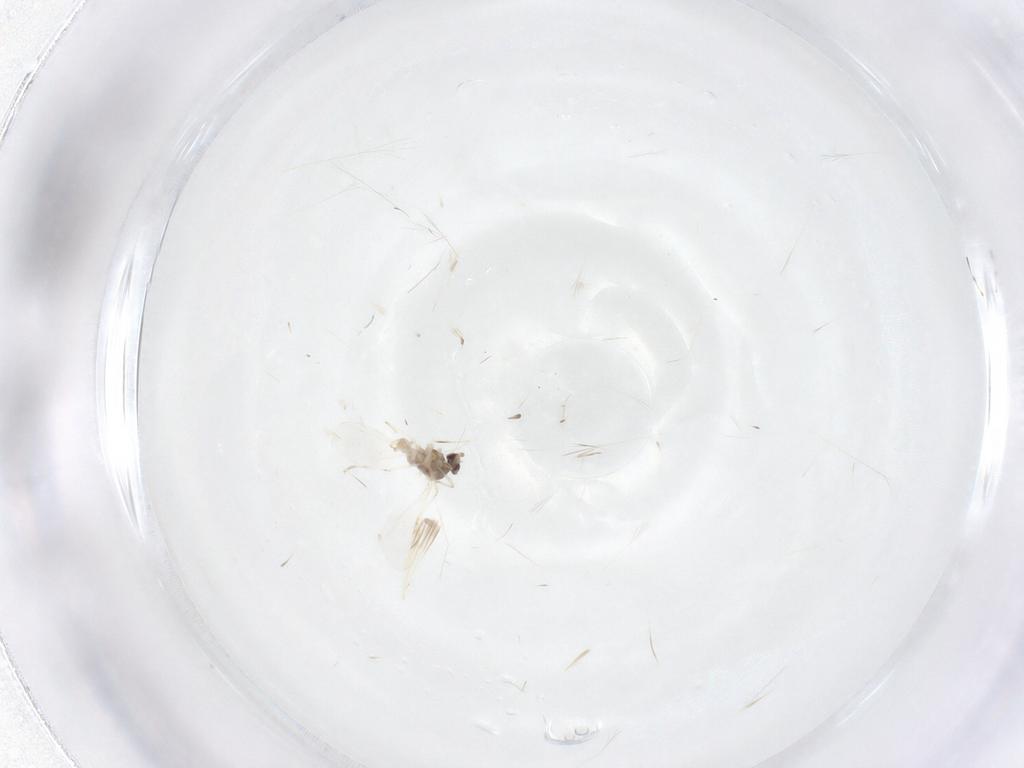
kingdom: Animalia
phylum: Arthropoda
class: Insecta
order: Diptera
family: Cecidomyiidae
